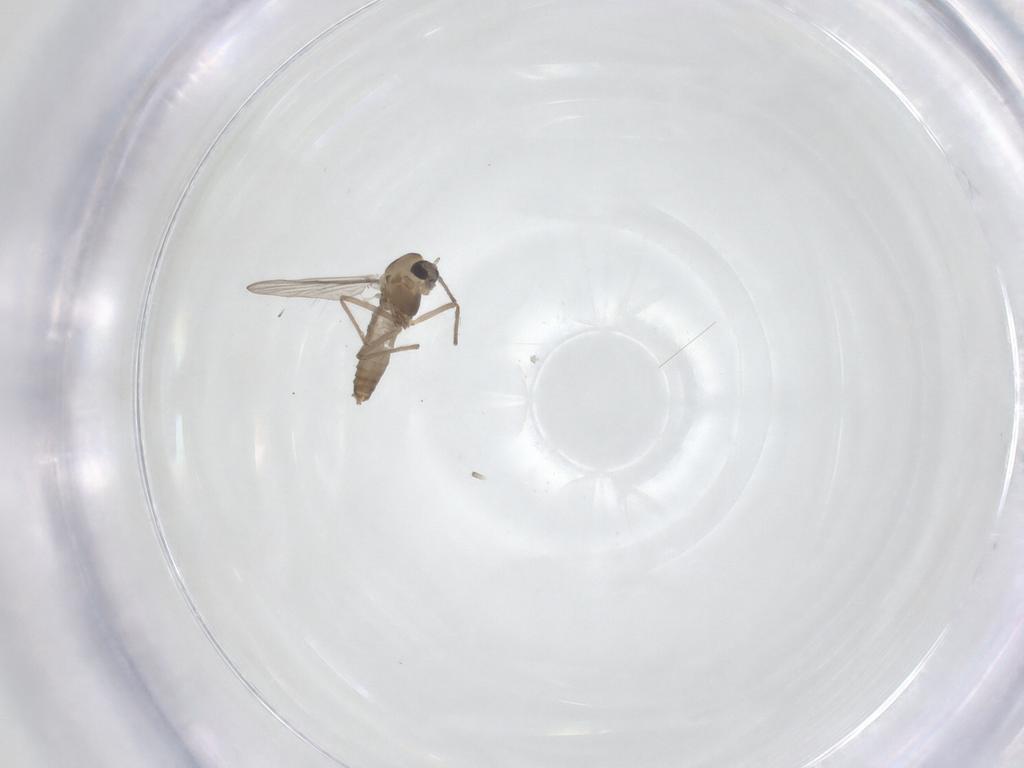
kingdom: Animalia
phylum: Arthropoda
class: Insecta
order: Diptera
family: Chironomidae
